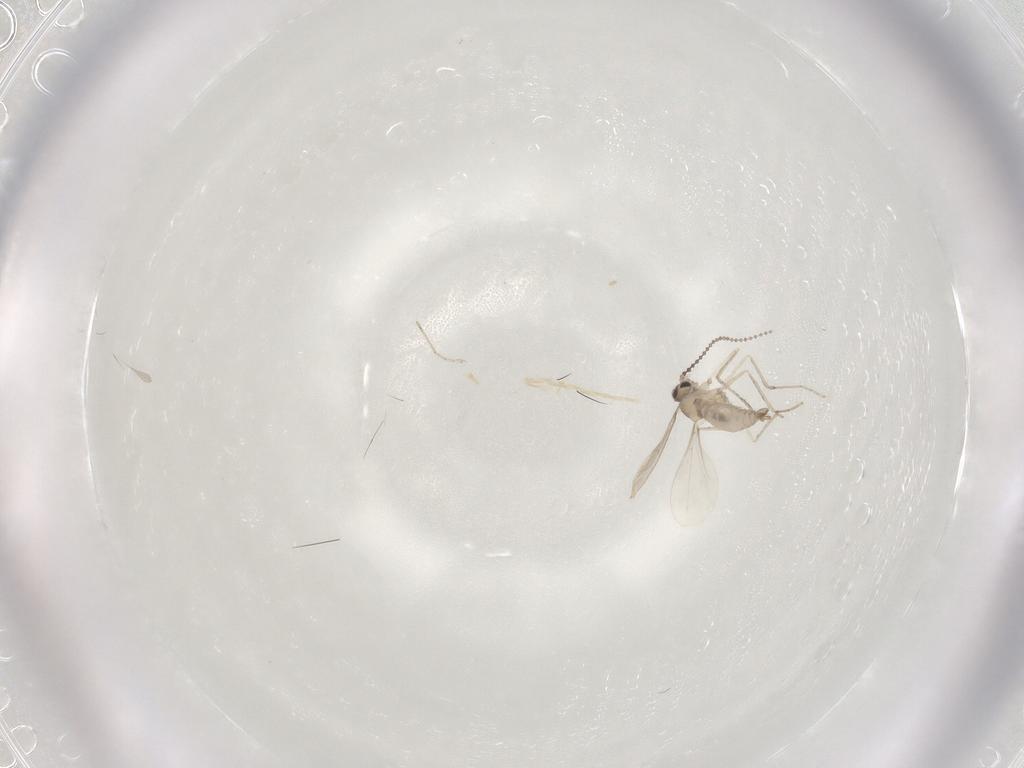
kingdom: Animalia
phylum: Arthropoda
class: Insecta
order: Diptera
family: Cecidomyiidae
